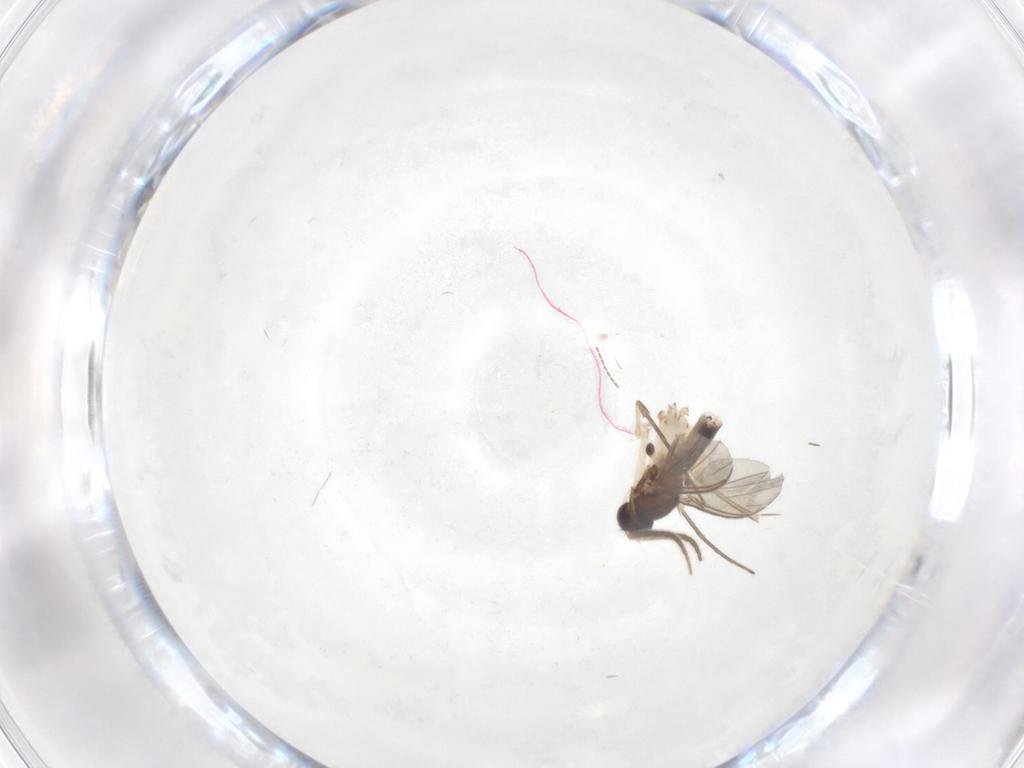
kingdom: Animalia
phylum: Arthropoda
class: Insecta
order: Diptera
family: Mycetophilidae
